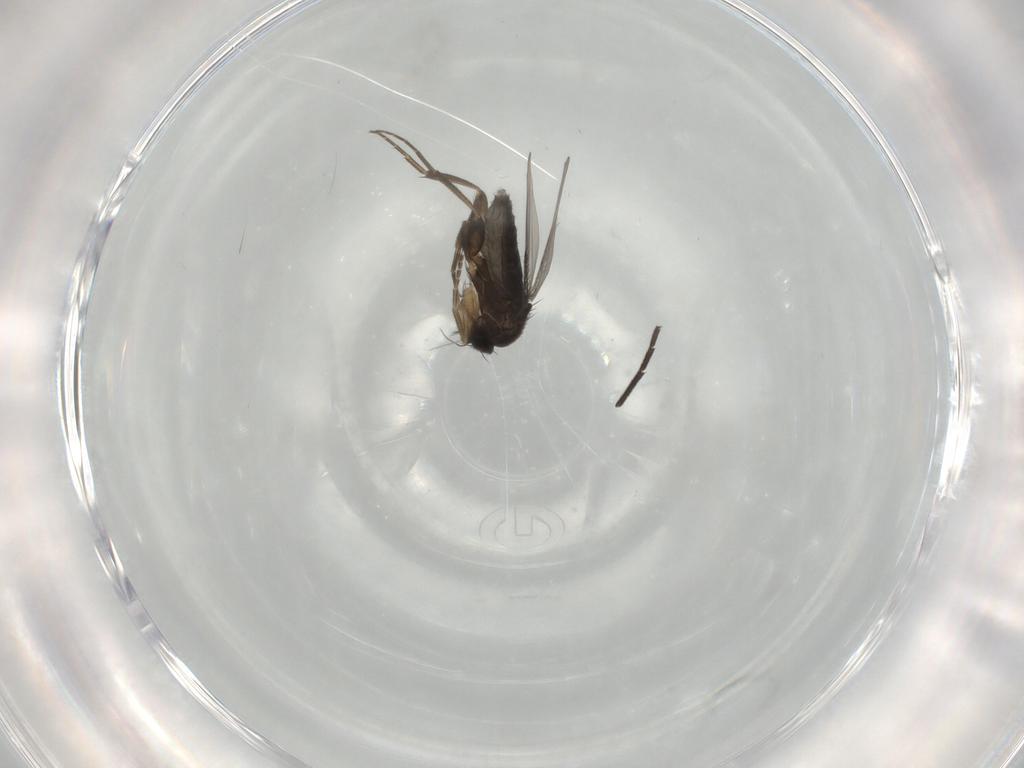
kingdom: Animalia
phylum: Arthropoda
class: Insecta
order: Diptera
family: Phoridae
